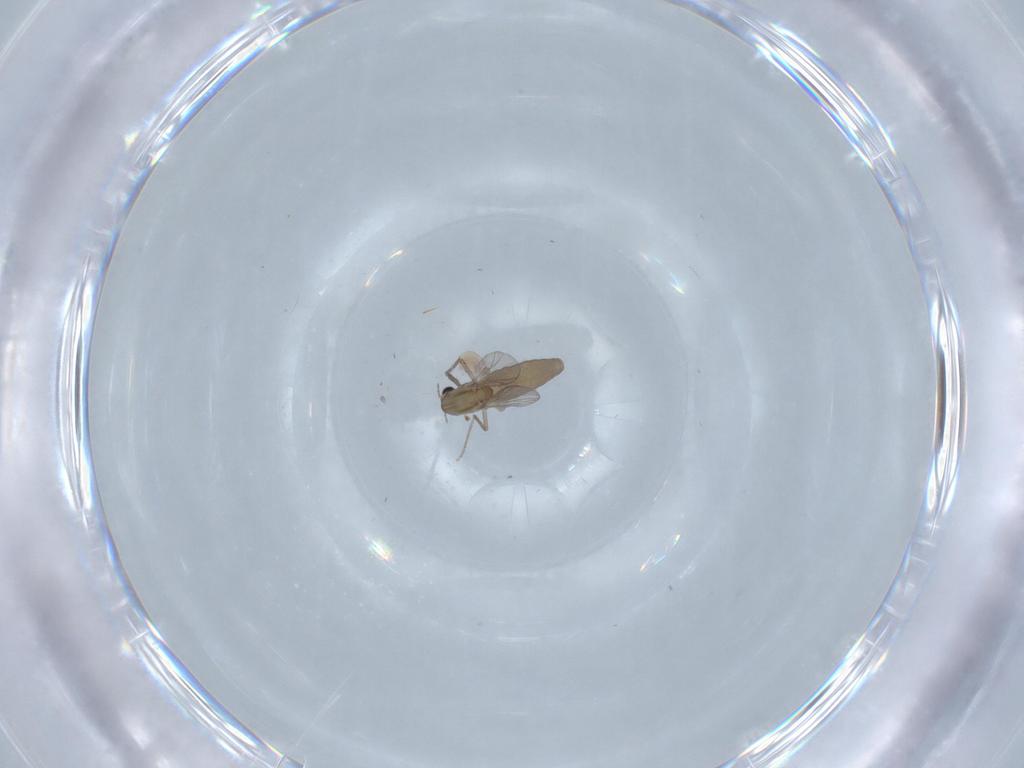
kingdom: Animalia
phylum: Arthropoda
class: Insecta
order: Diptera
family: Chironomidae
